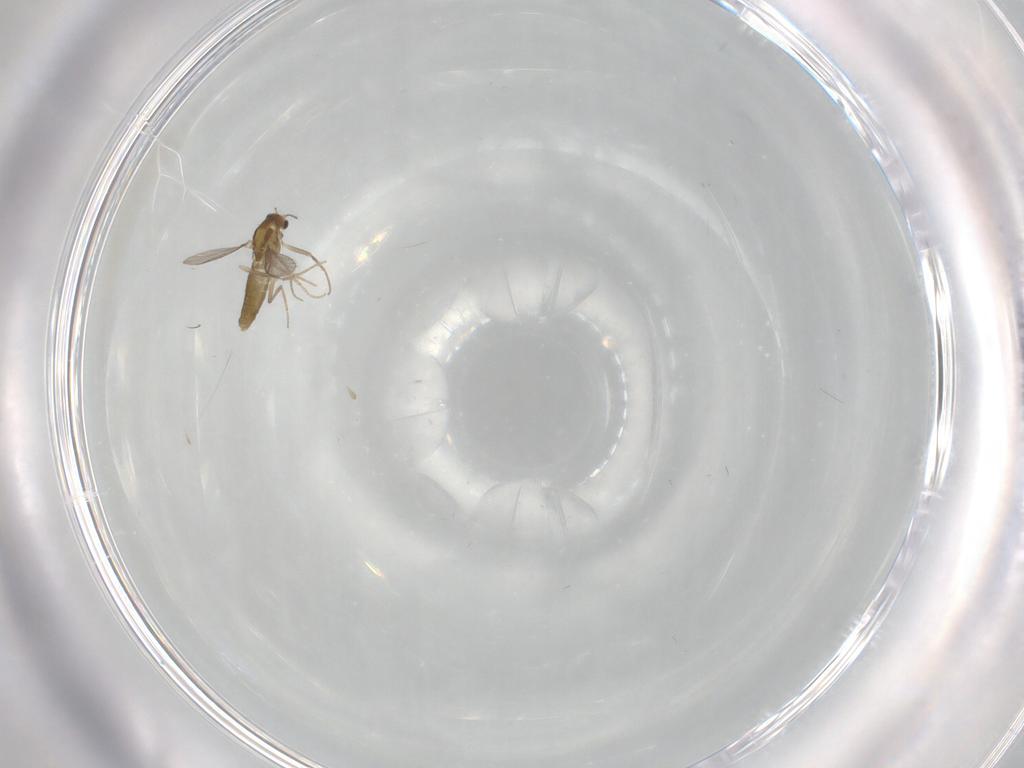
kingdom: Animalia
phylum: Arthropoda
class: Insecta
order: Diptera
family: Chironomidae
